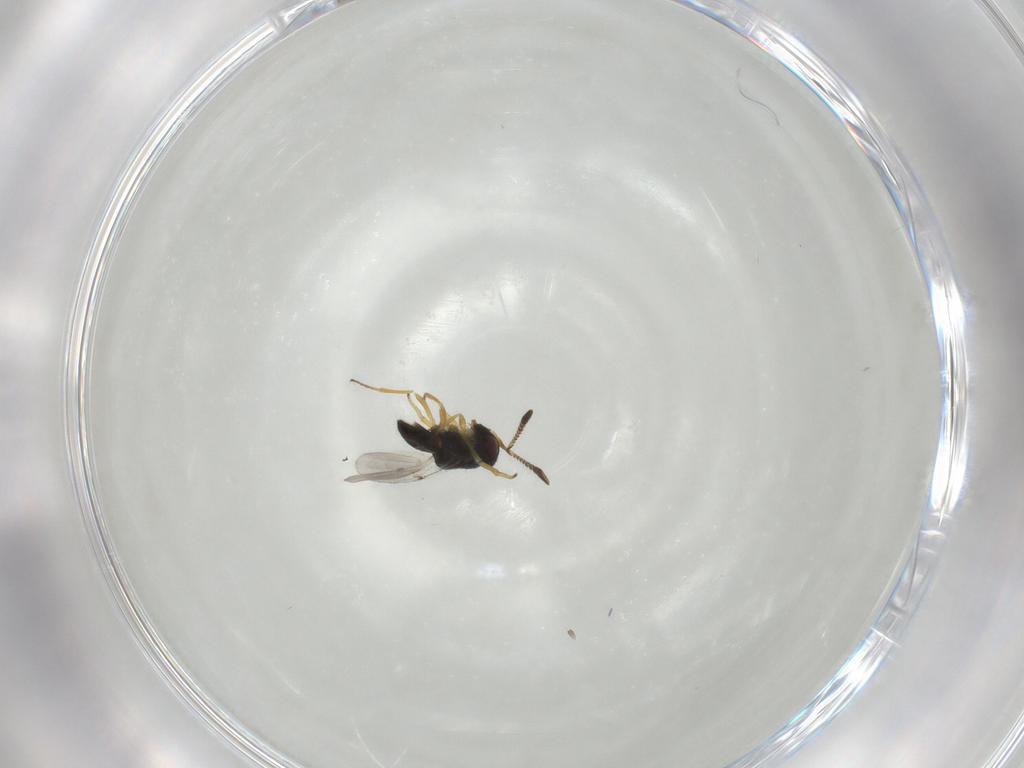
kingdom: Animalia
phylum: Arthropoda
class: Insecta
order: Hymenoptera
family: Encyrtidae
